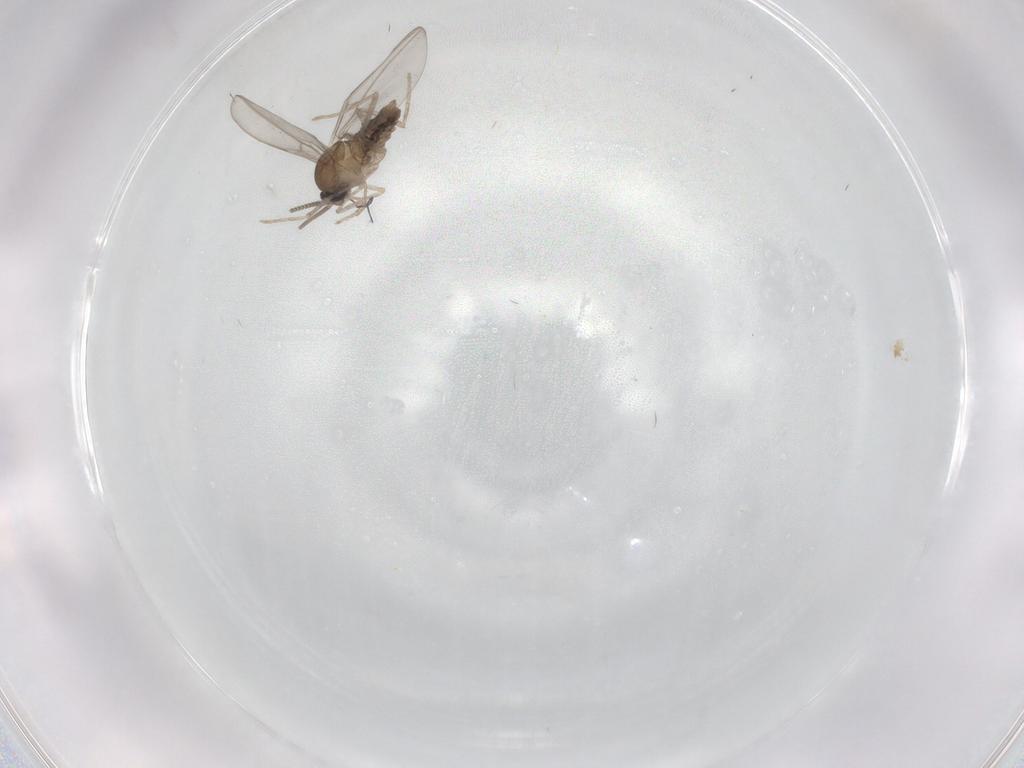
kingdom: Animalia
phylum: Arthropoda
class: Insecta
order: Diptera
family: Cecidomyiidae
